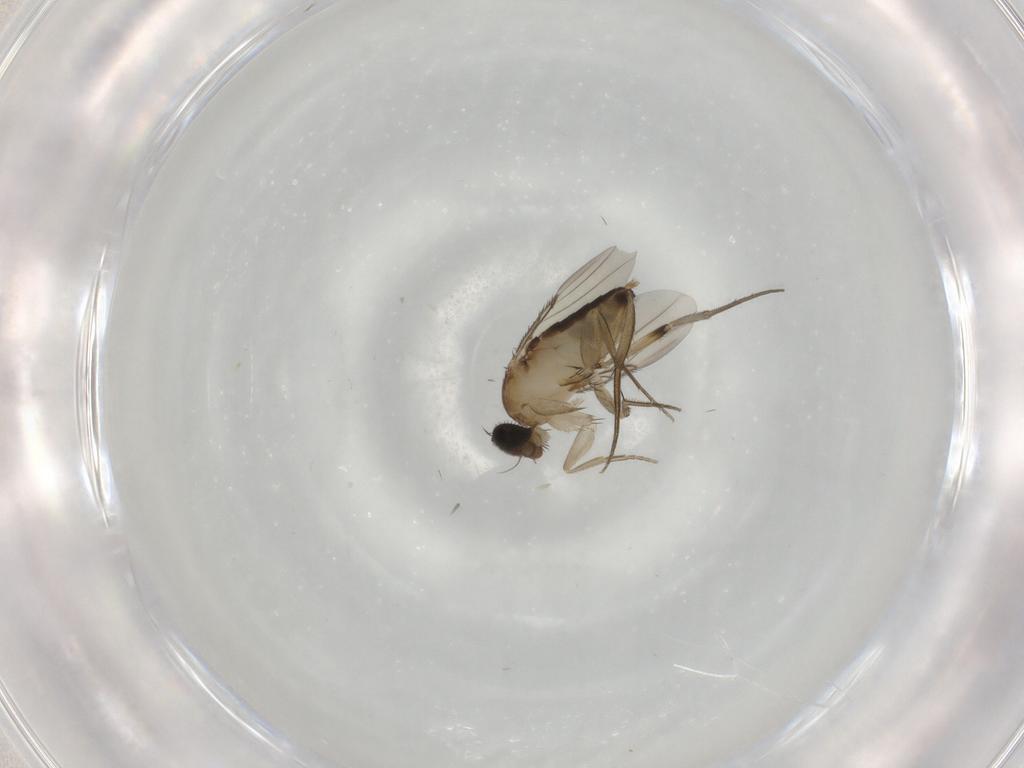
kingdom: Animalia
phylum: Arthropoda
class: Insecta
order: Diptera
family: Phoridae
